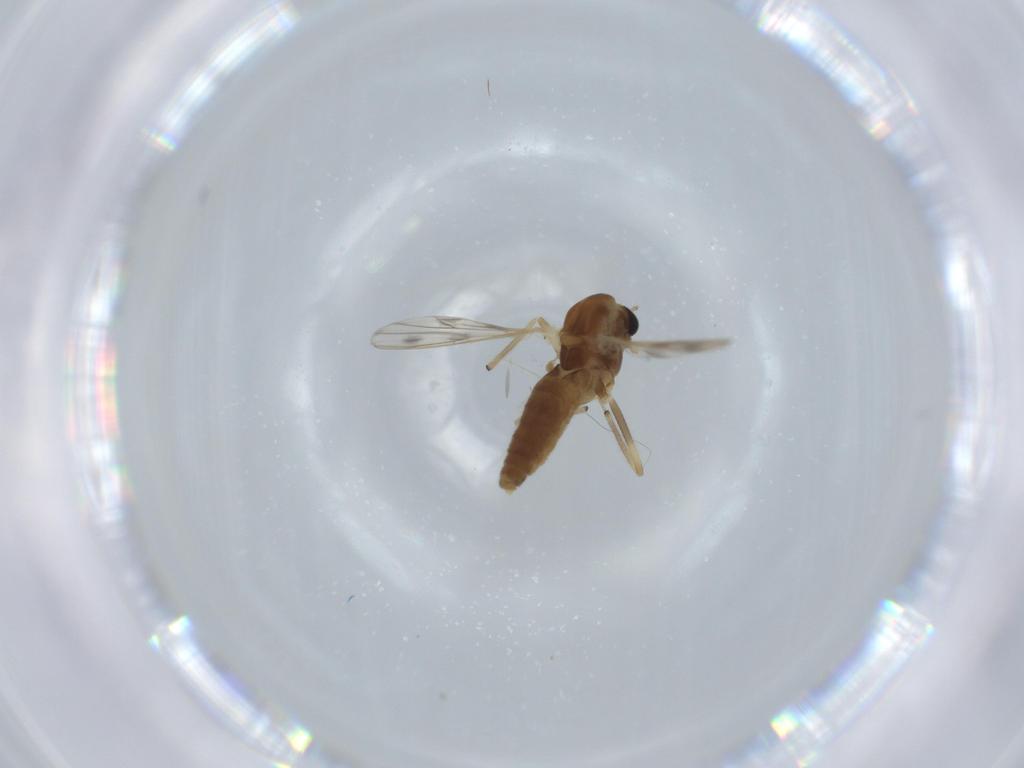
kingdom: Animalia
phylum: Arthropoda
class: Insecta
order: Diptera
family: Chironomidae
